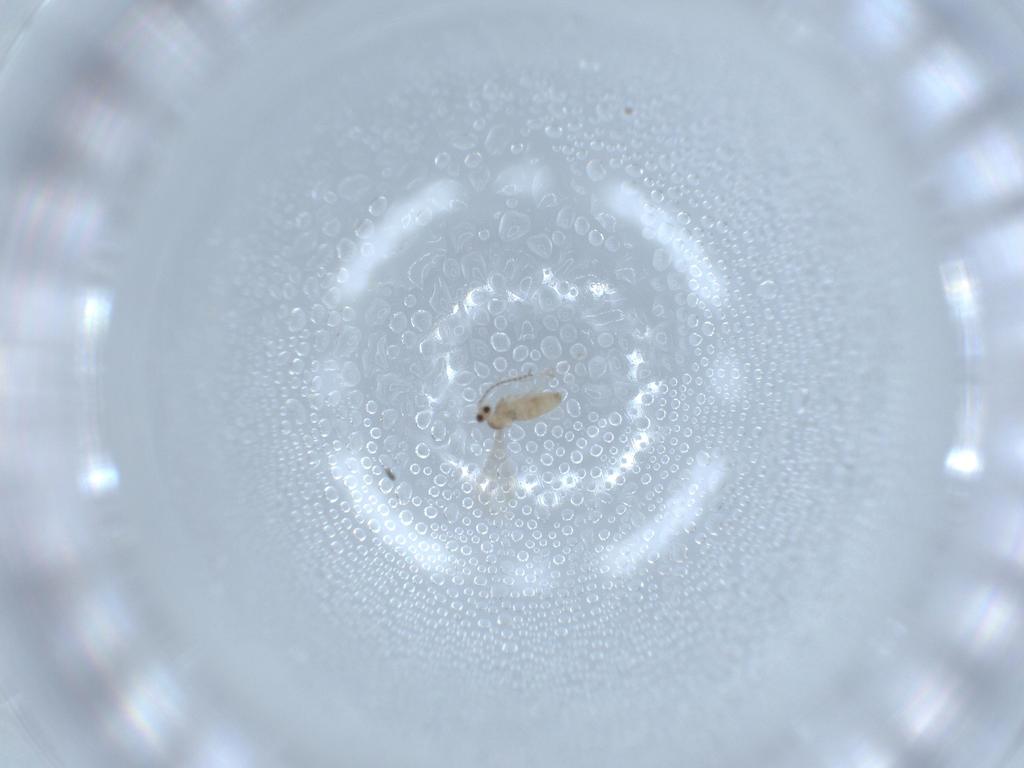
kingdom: Animalia
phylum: Arthropoda
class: Insecta
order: Diptera
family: Cecidomyiidae
